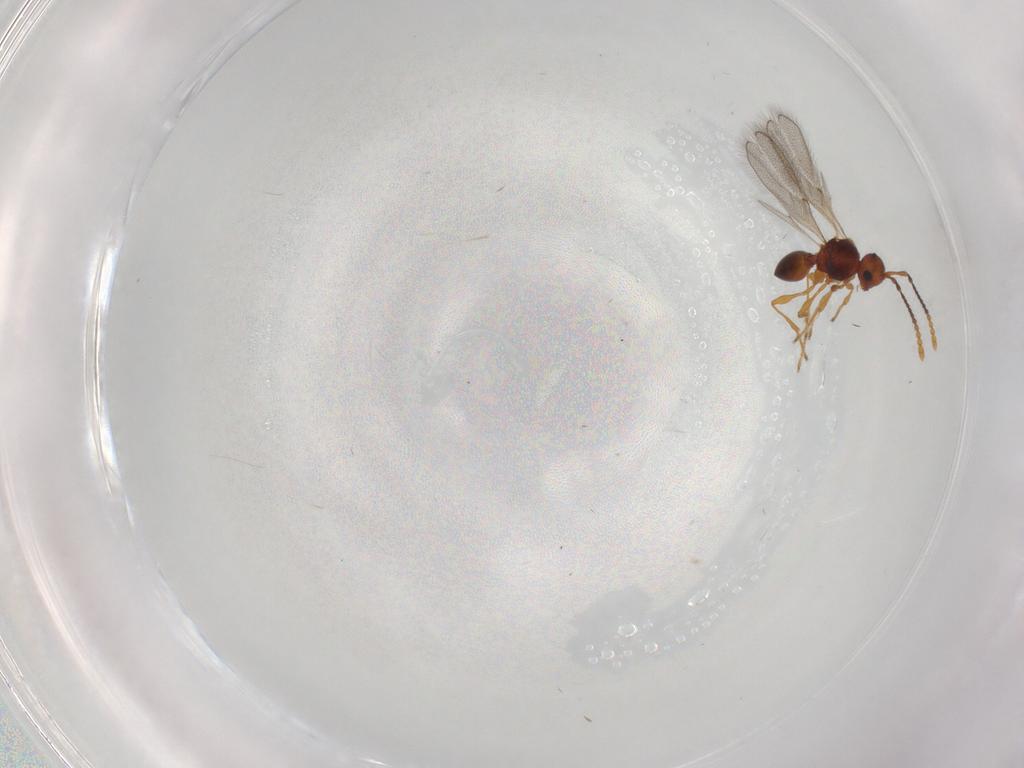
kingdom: Animalia
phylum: Arthropoda
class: Insecta
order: Hymenoptera
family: Diapriidae
